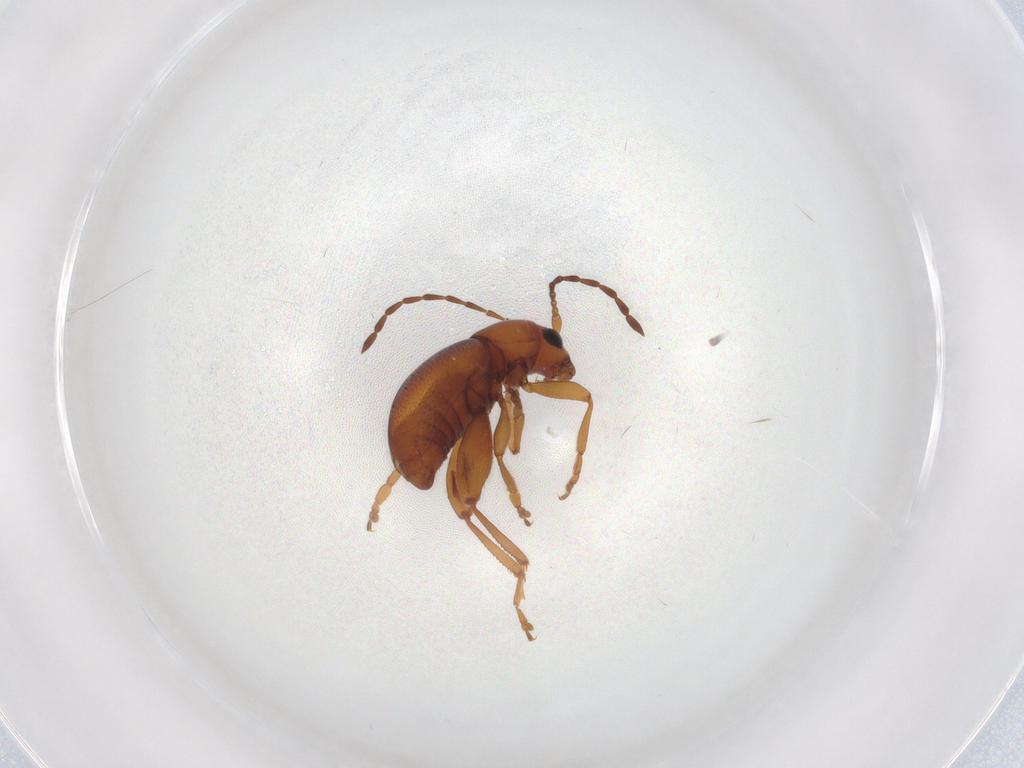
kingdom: Animalia
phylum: Arthropoda
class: Insecta
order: Coleoptera
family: Chrysomelidae
